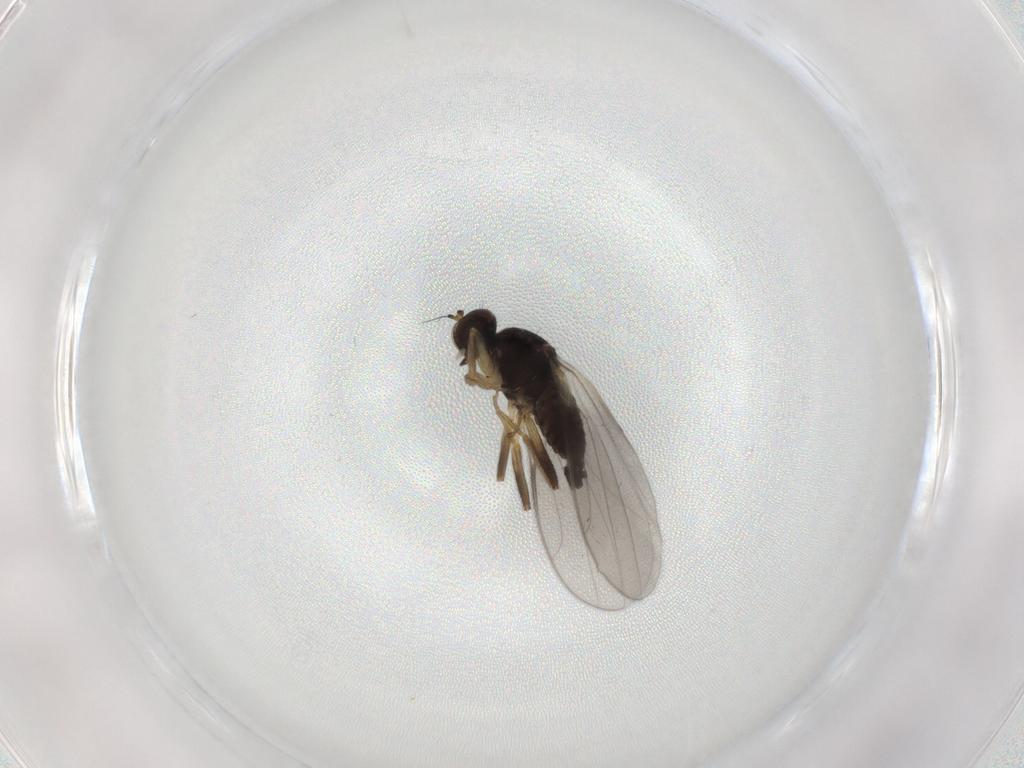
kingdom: Animalia
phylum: Arthropoda
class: Insecta
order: Diptera
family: Hybotidae
